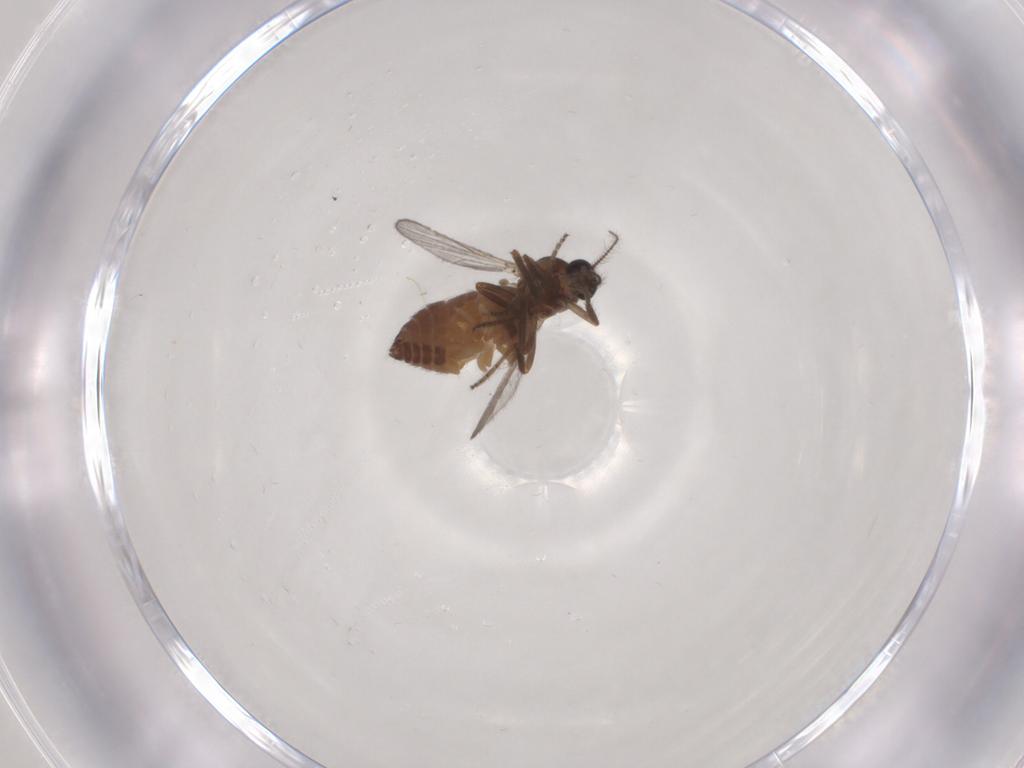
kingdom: Animalia
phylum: Arthropoda
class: Insecta
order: Diptera
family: Ceratopogonidae
